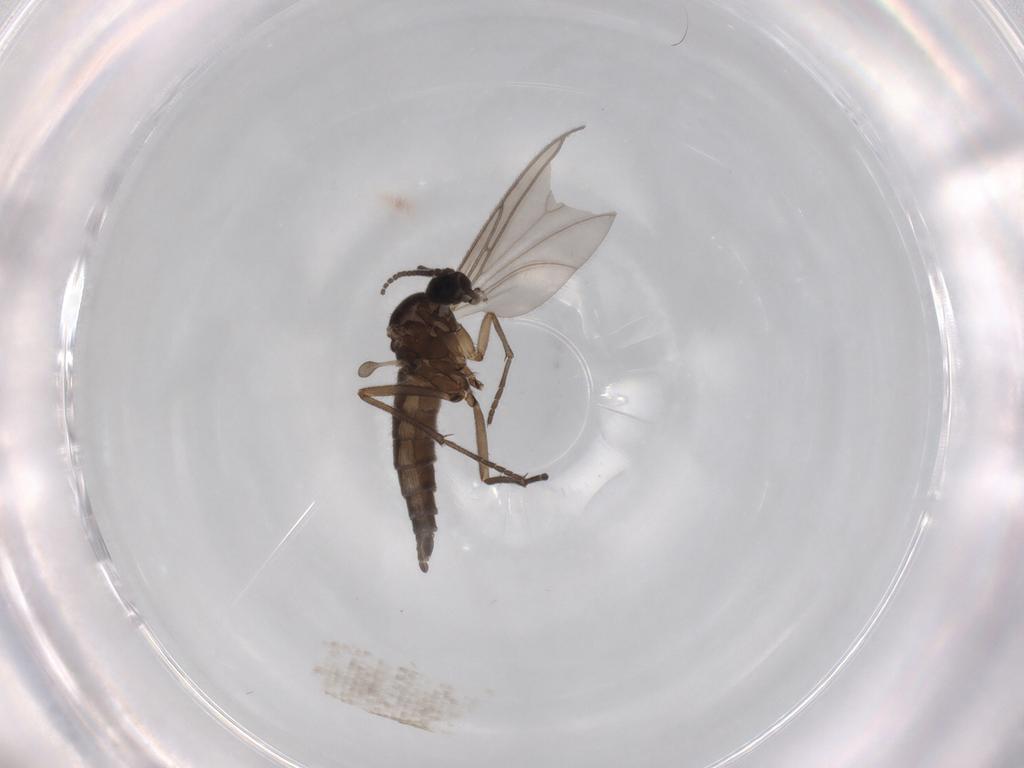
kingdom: Animalia
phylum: Arthropoda
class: Insecta
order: Diptera
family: Sciaridae
